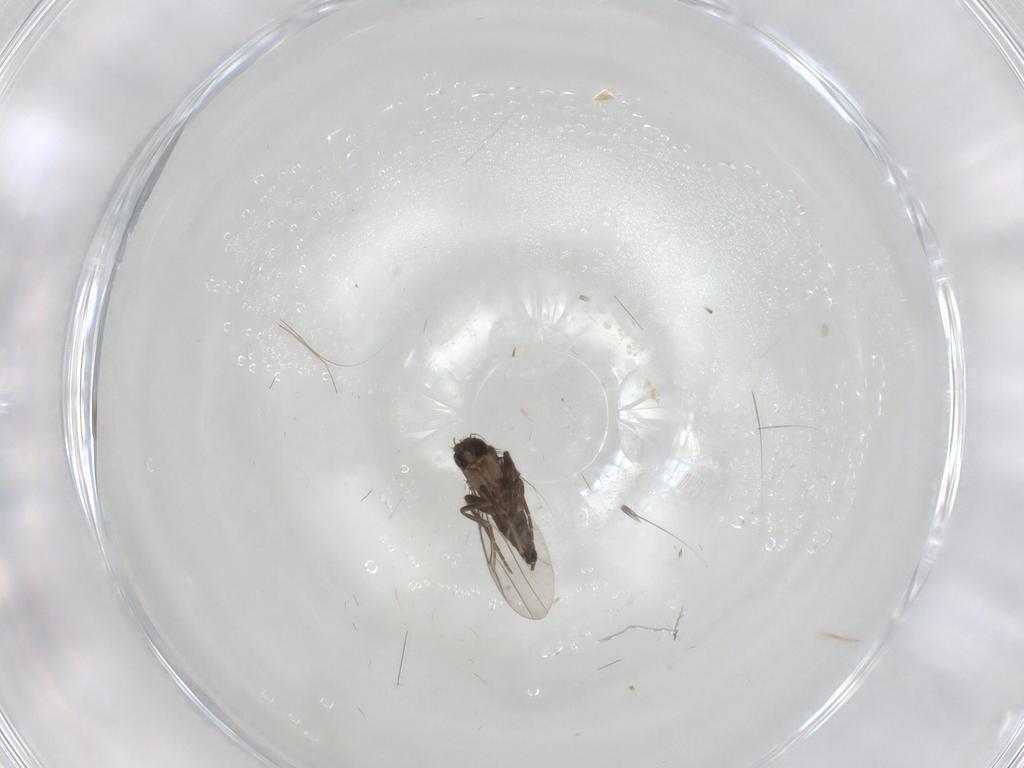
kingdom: Animalia
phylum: Arthropoda
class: Insecta
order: Diptera
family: Phoridae
